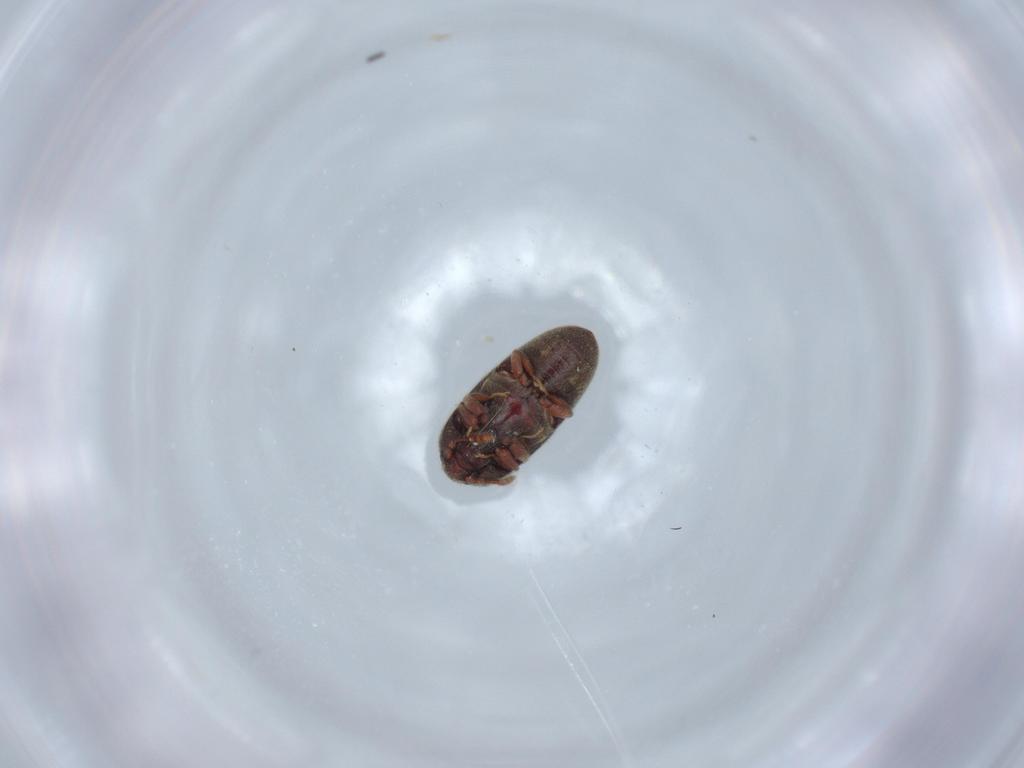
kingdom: Animalia
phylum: Arthropoda
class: Insecta
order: Coleoptera
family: Throscidae
